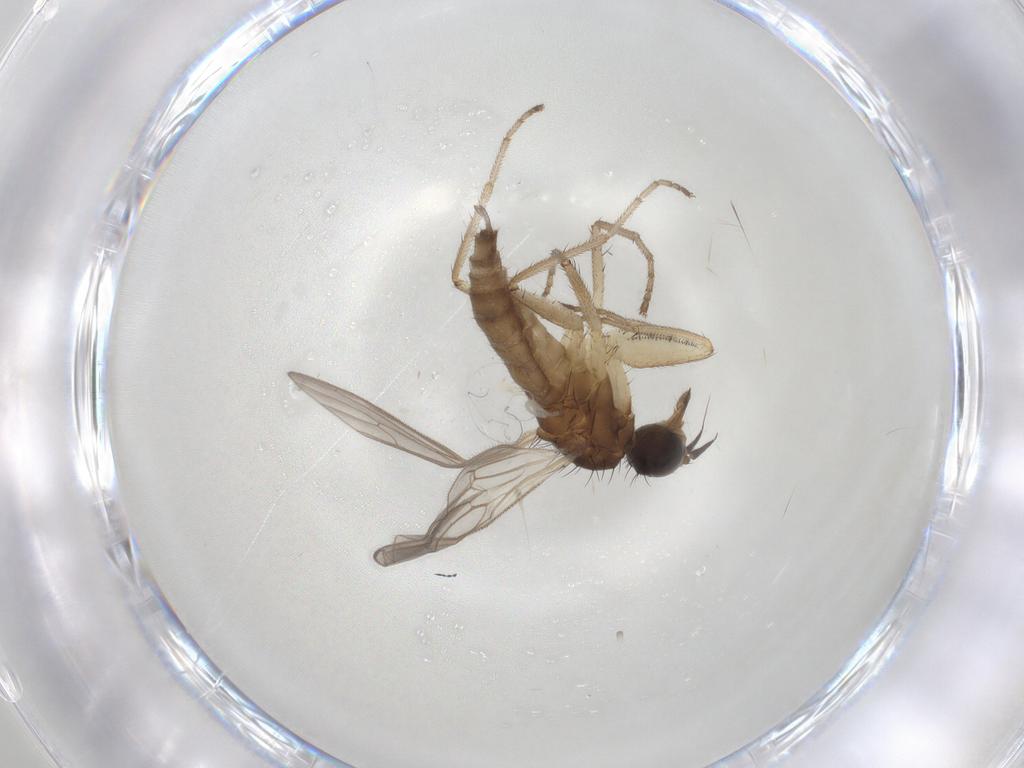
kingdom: Animalia
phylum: Arthropoda
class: Insecta
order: Diptera
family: Empididae
